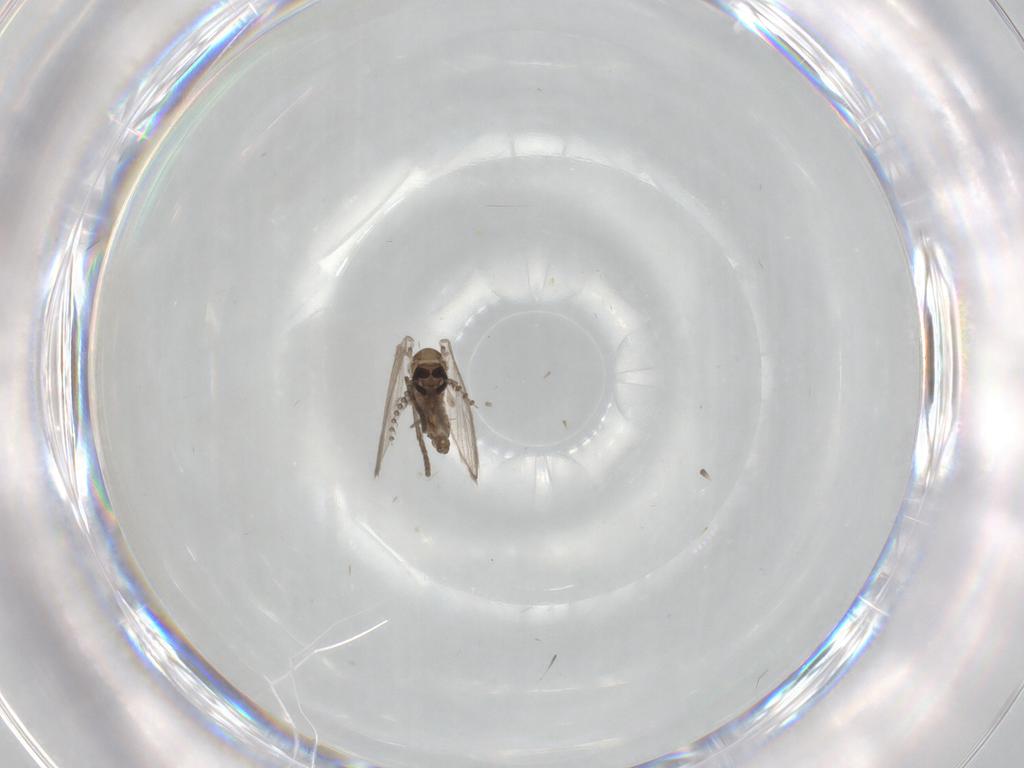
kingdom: Animalia
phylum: Arthropoda
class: Insecta
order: Diptera
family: Psychodidae
